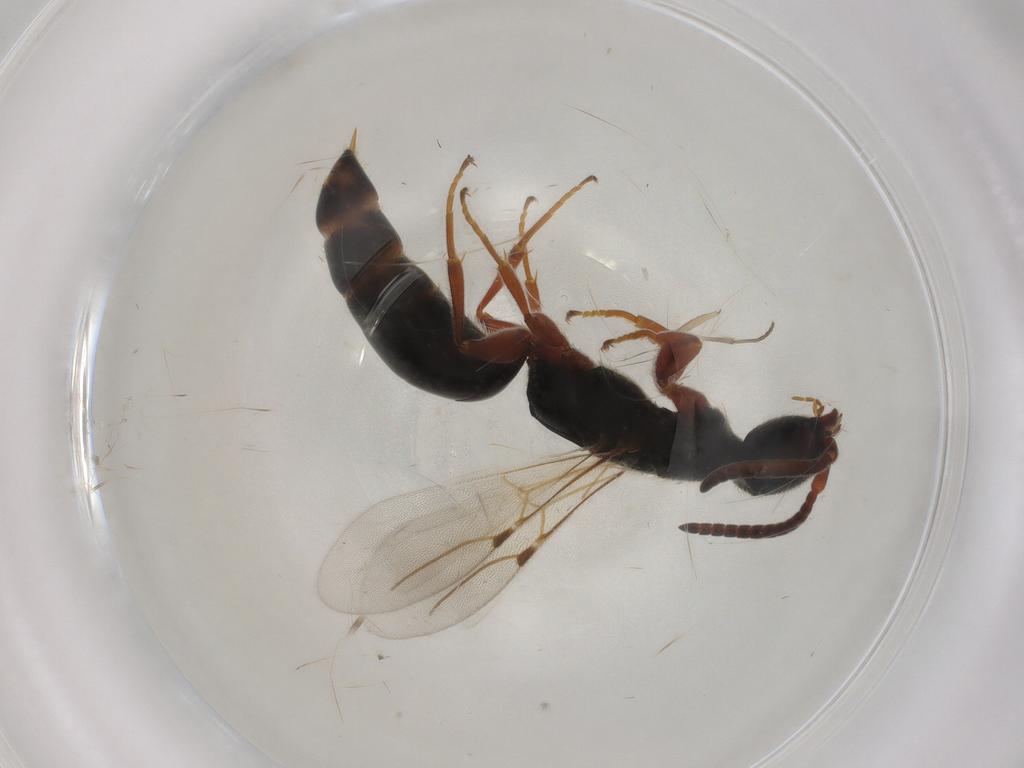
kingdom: Animalia
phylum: Arthropoda
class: Insecta
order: Hymenoptera
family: Bethylidae
